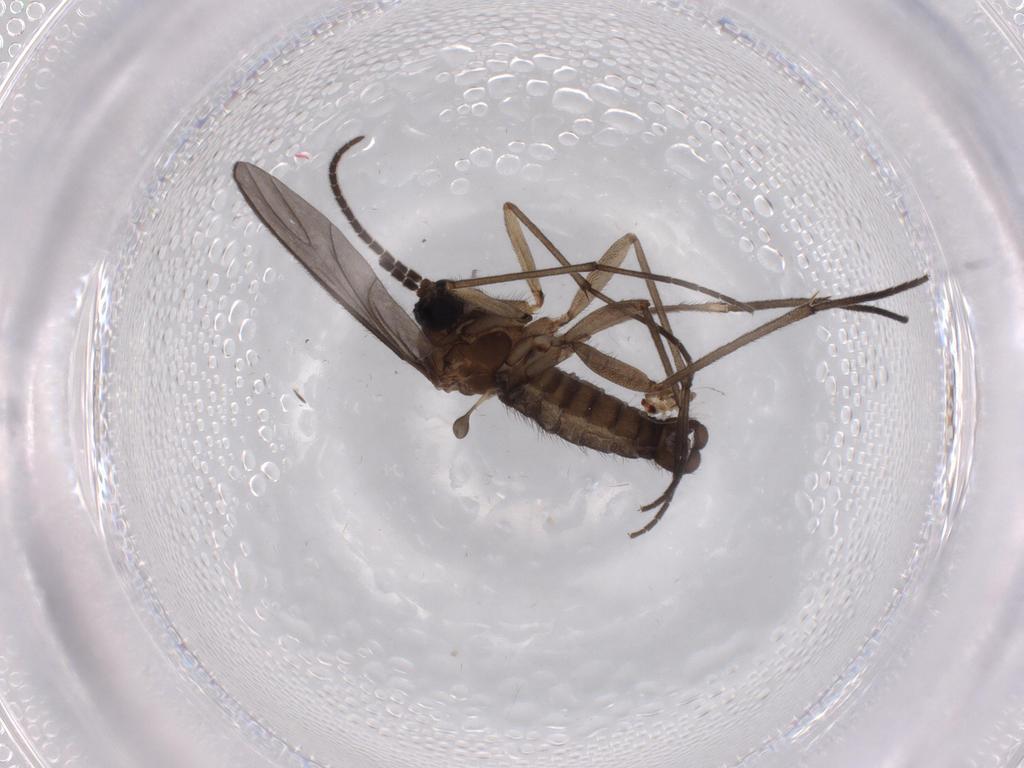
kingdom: Animalia
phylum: Arthropoda
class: Insecta
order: Diptera
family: Sciaridae
